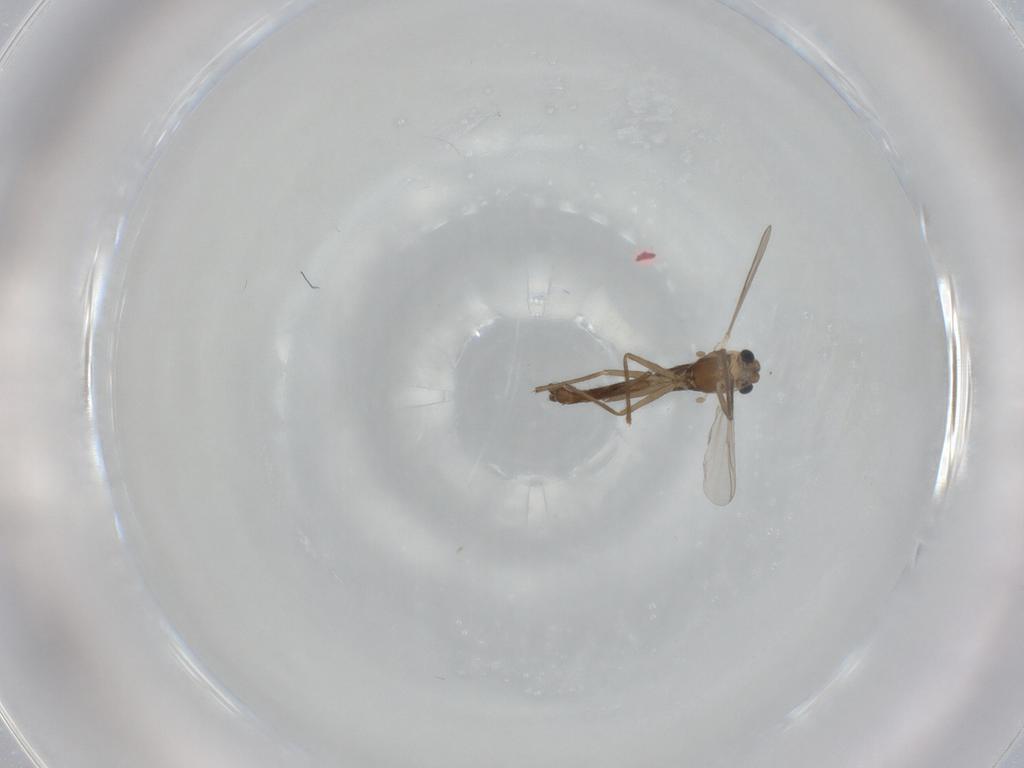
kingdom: Animalia
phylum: Arthropoda
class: Insecta
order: Diptera
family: Chironomidae
